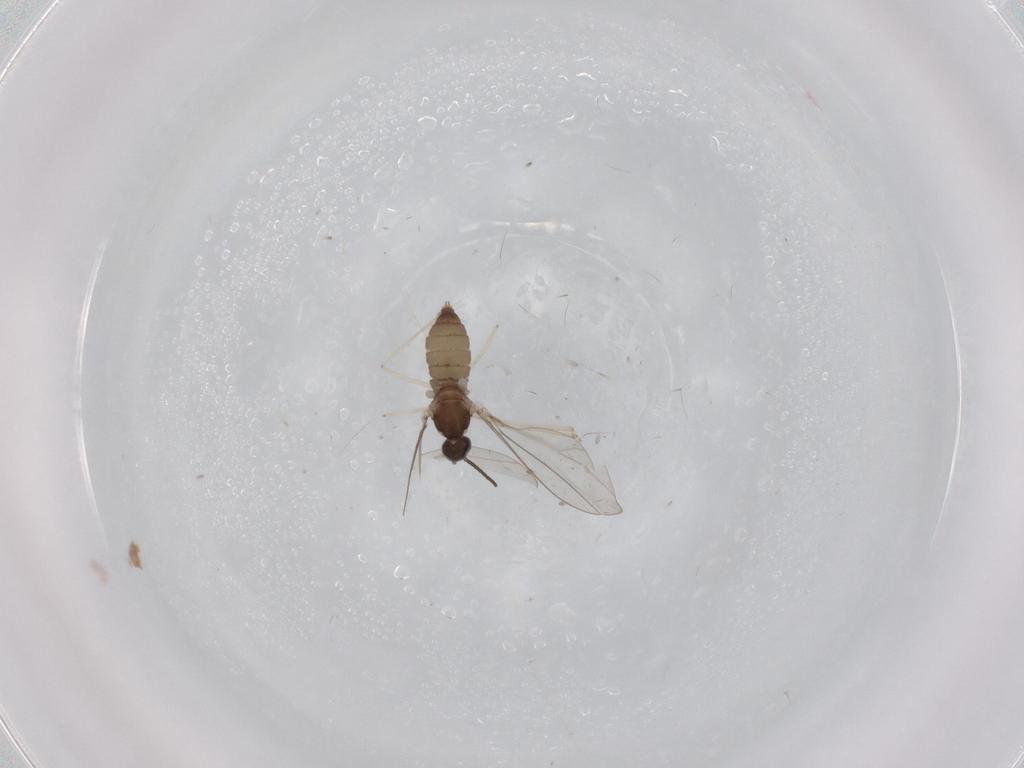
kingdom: Animalia
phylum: Arthropoda
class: Insecta
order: Diptera
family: Cecidomyiidae
